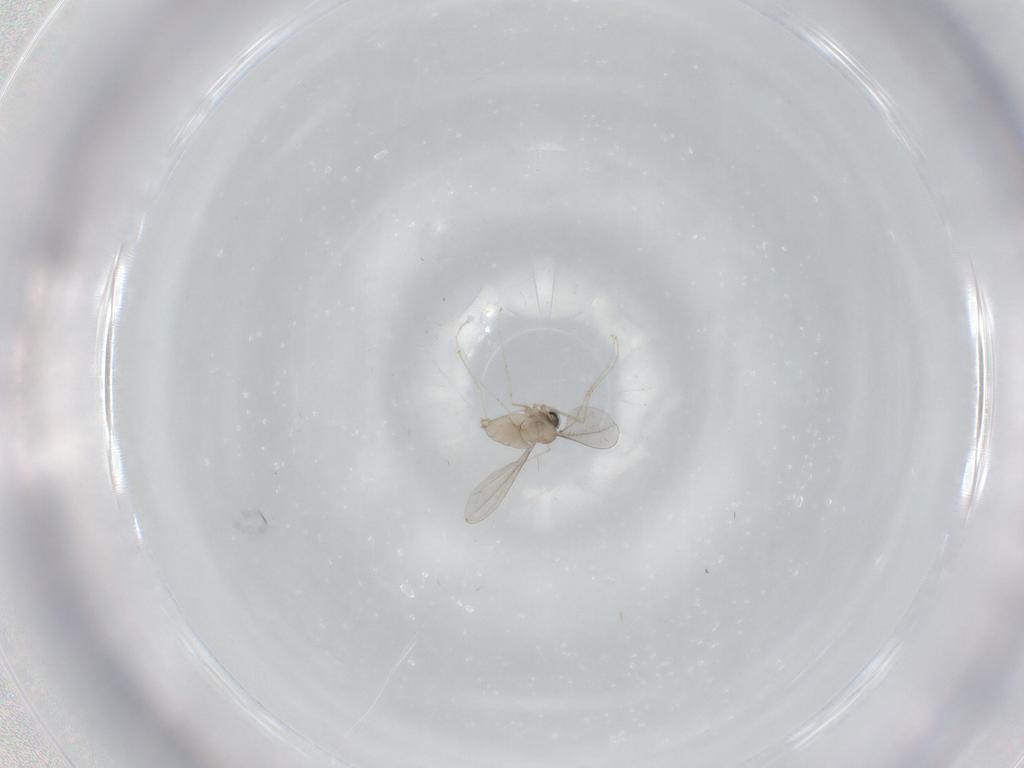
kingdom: Animalia
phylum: Arthropoda
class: Insecta
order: Diptera
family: Cecidomyiidae
